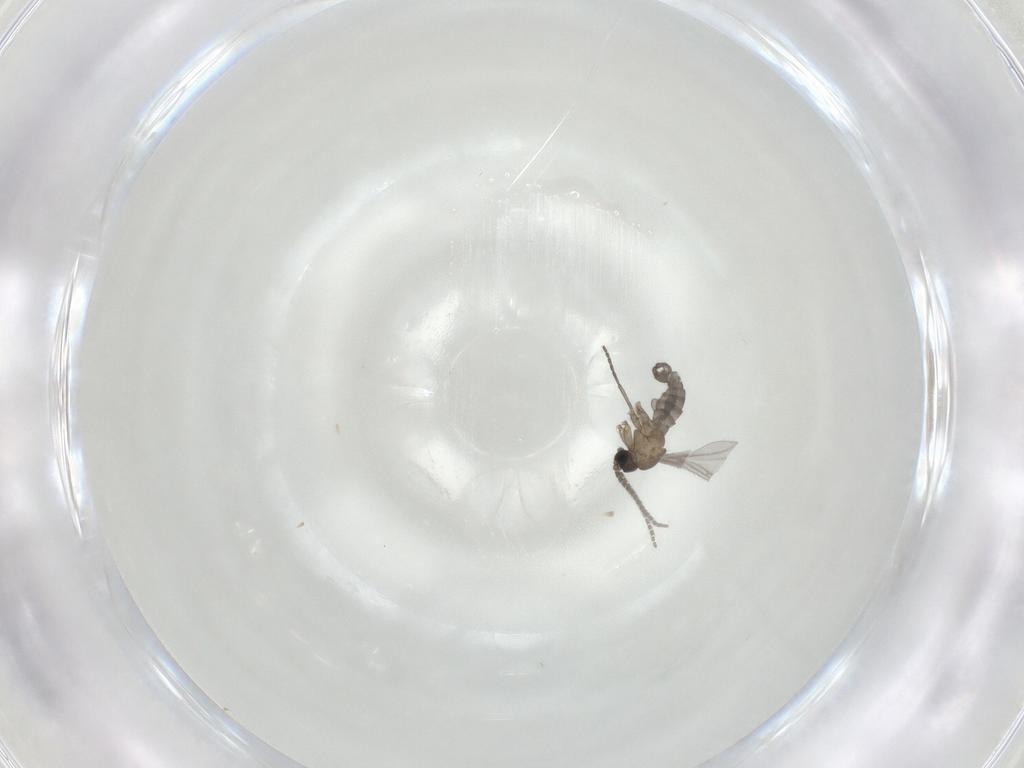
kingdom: Animalia
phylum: Arthropoda
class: Insecta
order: Diptera
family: Sciaridae
